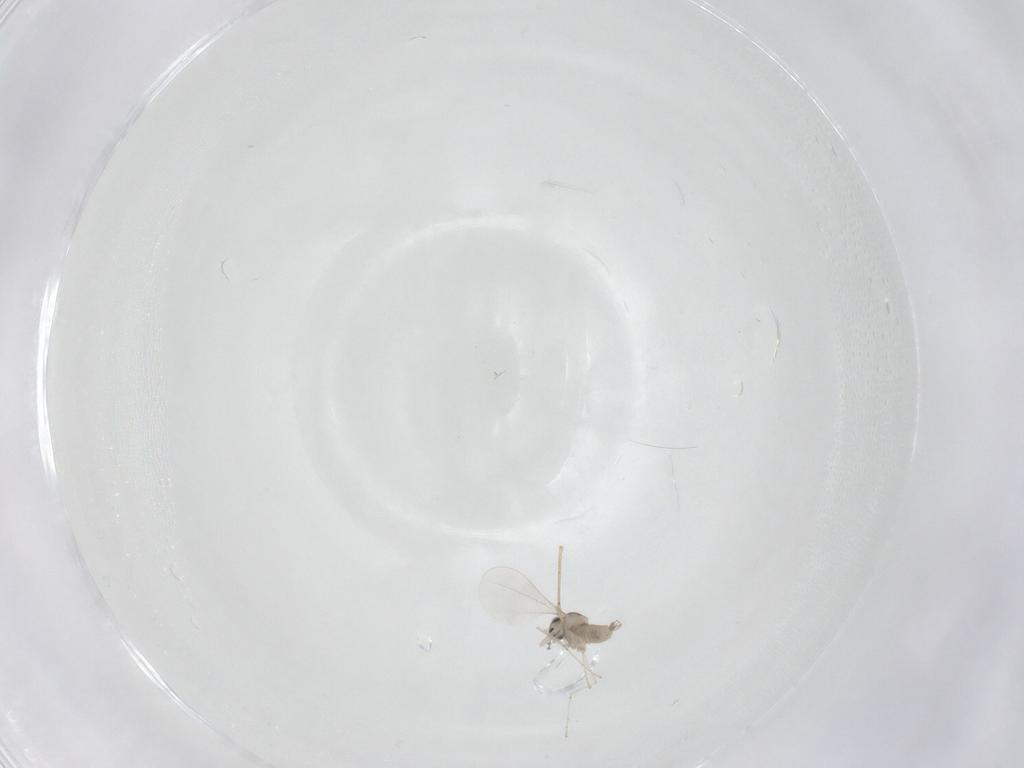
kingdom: Animalia
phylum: Arthropoda
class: Insecta
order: Diptera
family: Cecidomyiidae
